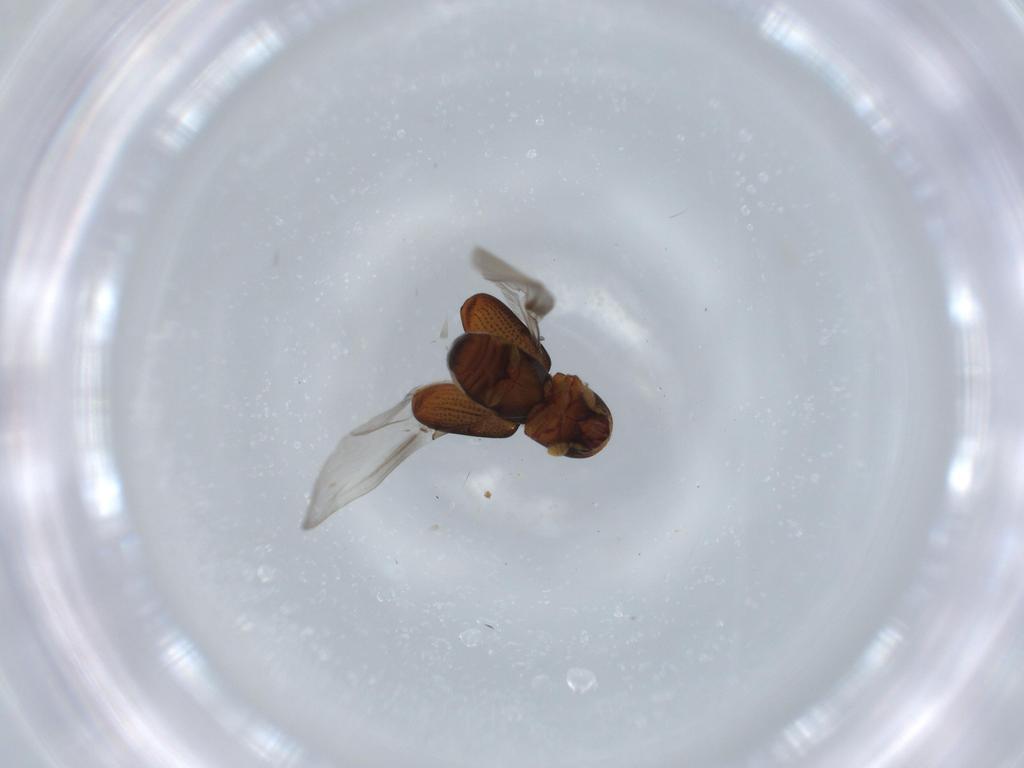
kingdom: Animalia
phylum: Arthropoda
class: Insecta
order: Coleoptera
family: Curculionidae
